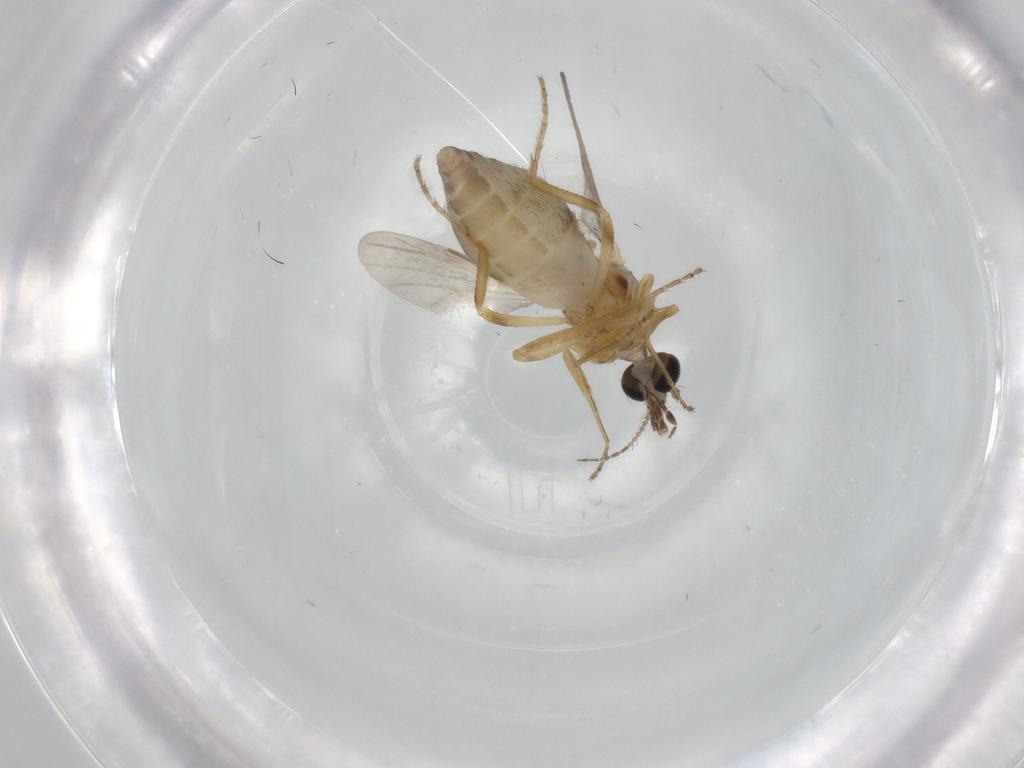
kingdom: Animalia
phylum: Arthropoda
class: Insecta
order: Diptera
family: Ceratopogonidae
